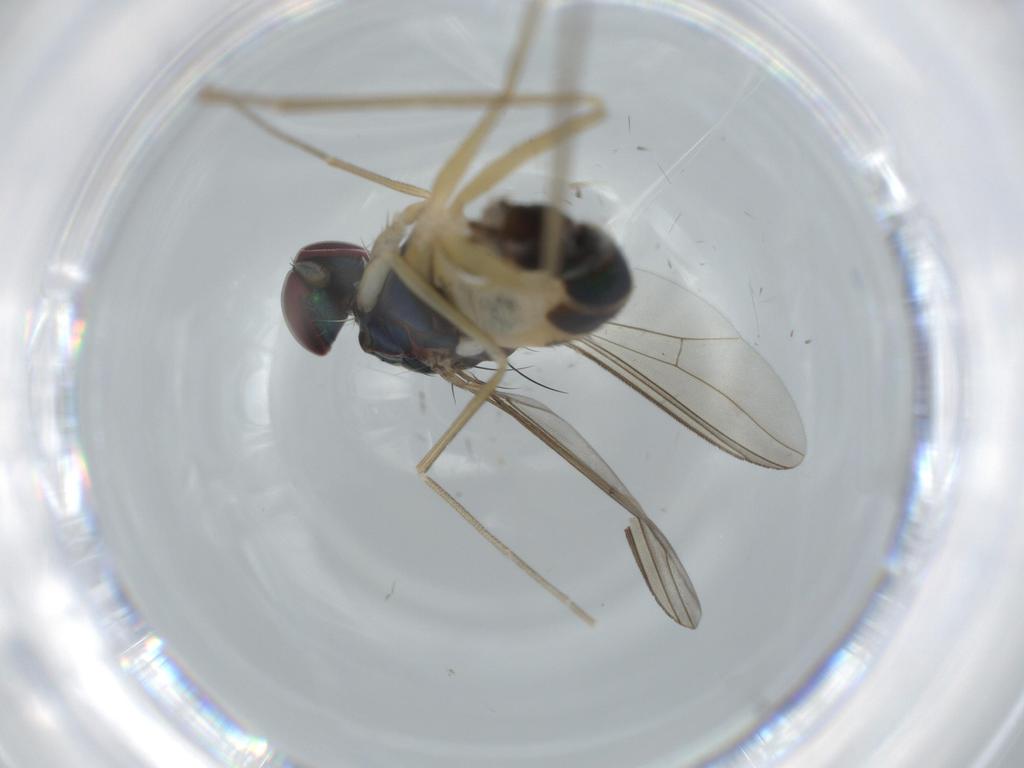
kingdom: Animalia
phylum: Arthropoda
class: Insecta
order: Diptera
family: Dolichopodidae
